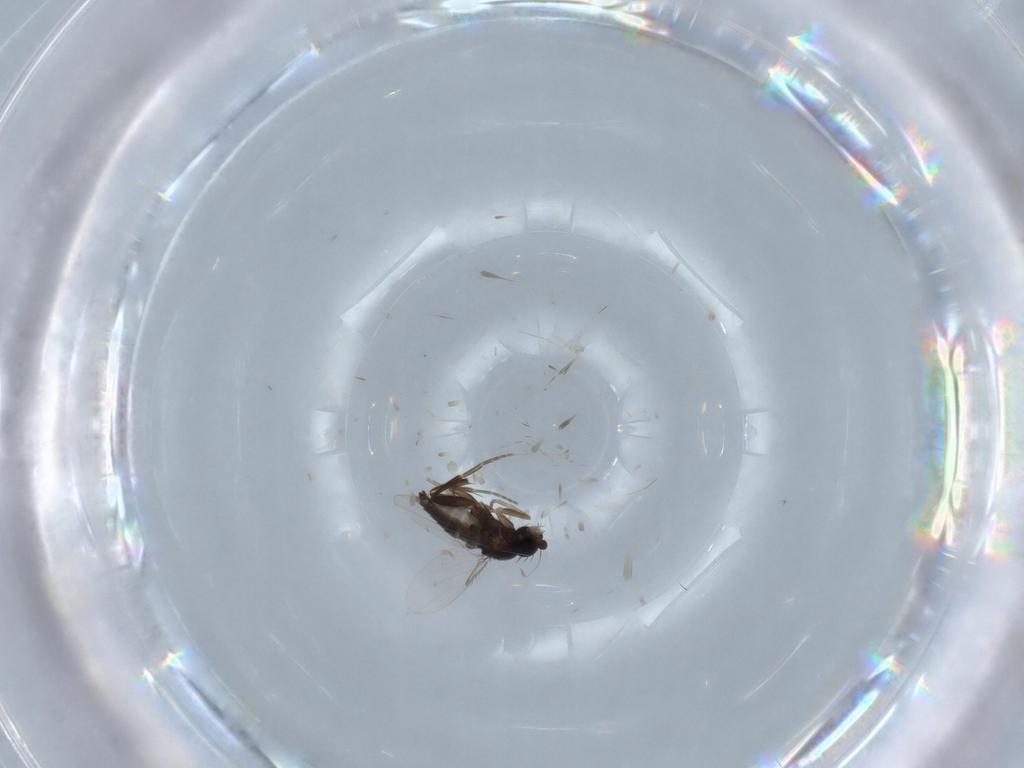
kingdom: Animalia
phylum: Arthropoda
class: Insecta
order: Diptera
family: Phoridae
